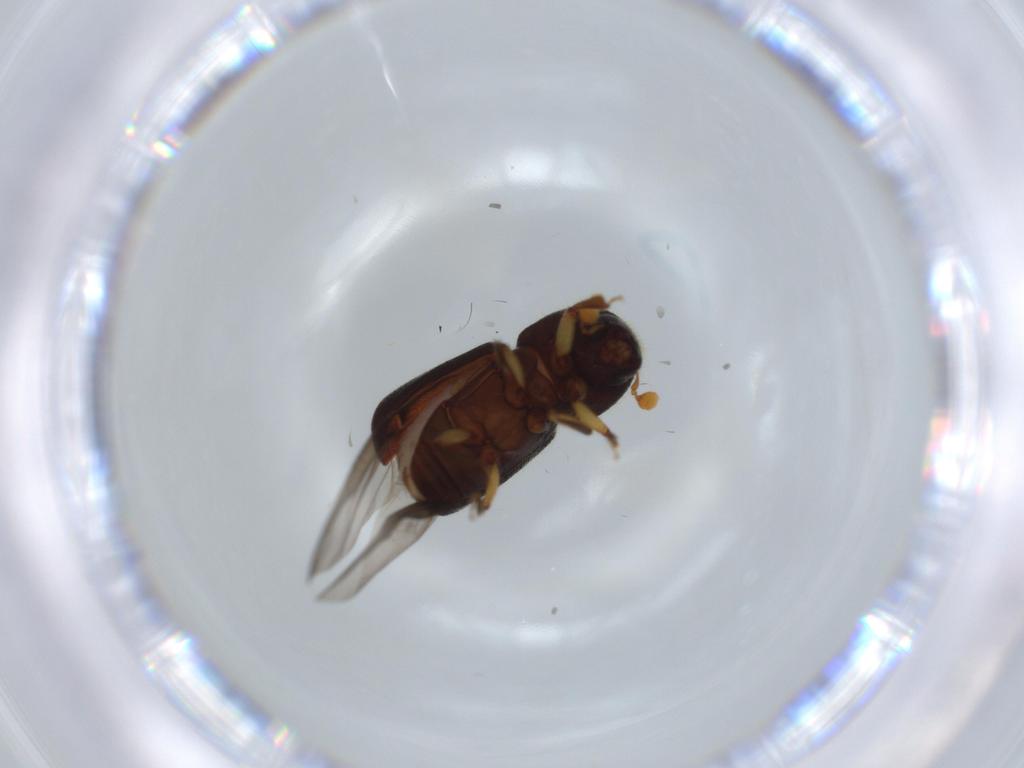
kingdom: Animalia
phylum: Arthropoda
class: Insecta
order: Coleoptera
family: Curculionidae
